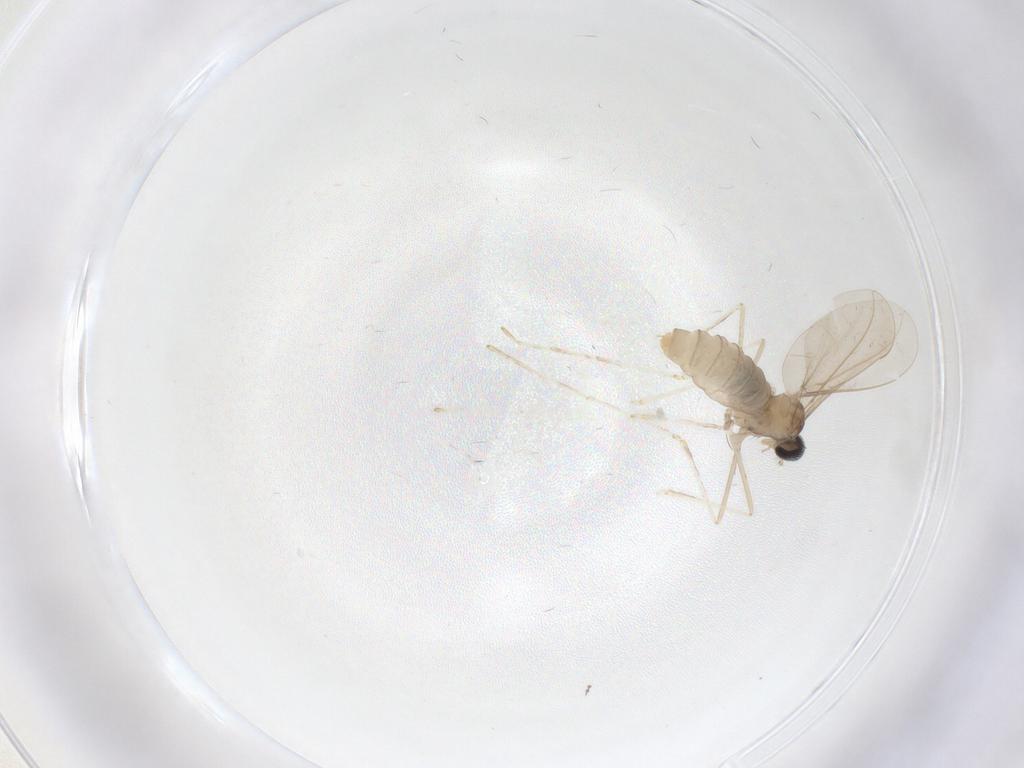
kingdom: Animalia
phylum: Arthropoda
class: Insecta
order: Diptera
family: Cecidomyiidae
